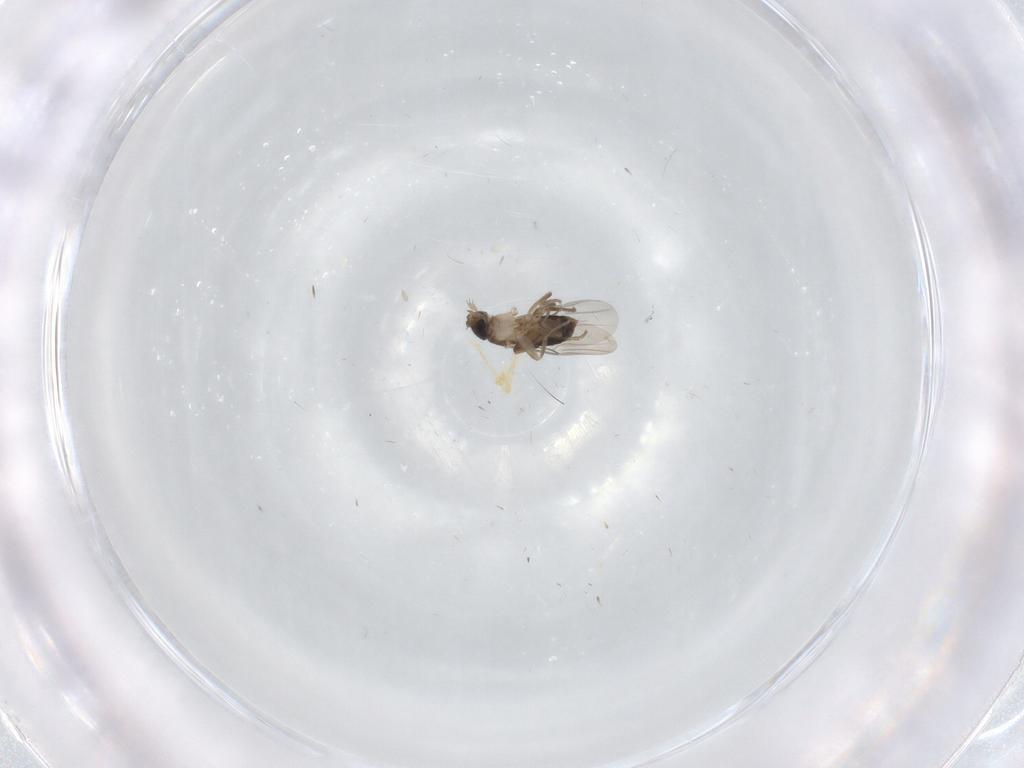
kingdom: Animalia
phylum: Arthropoda
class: Insecta
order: Diptera
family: Phoridae
